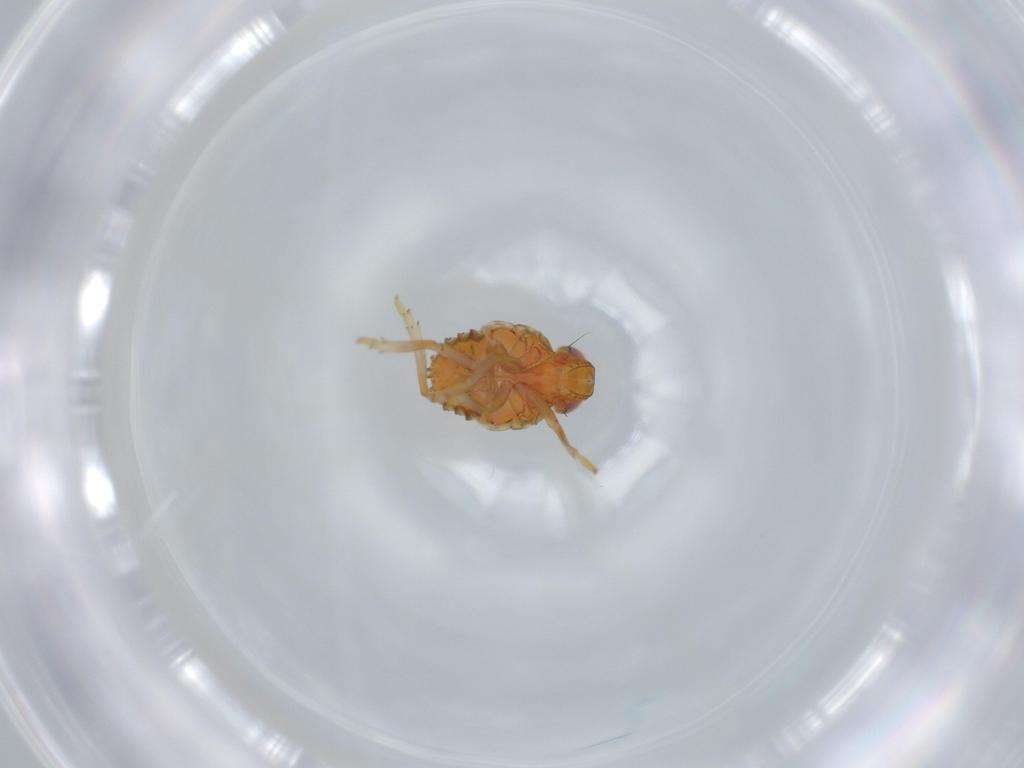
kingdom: Animalia
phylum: Arthropoda
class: Insecta
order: Hemiptera
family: Issidae
